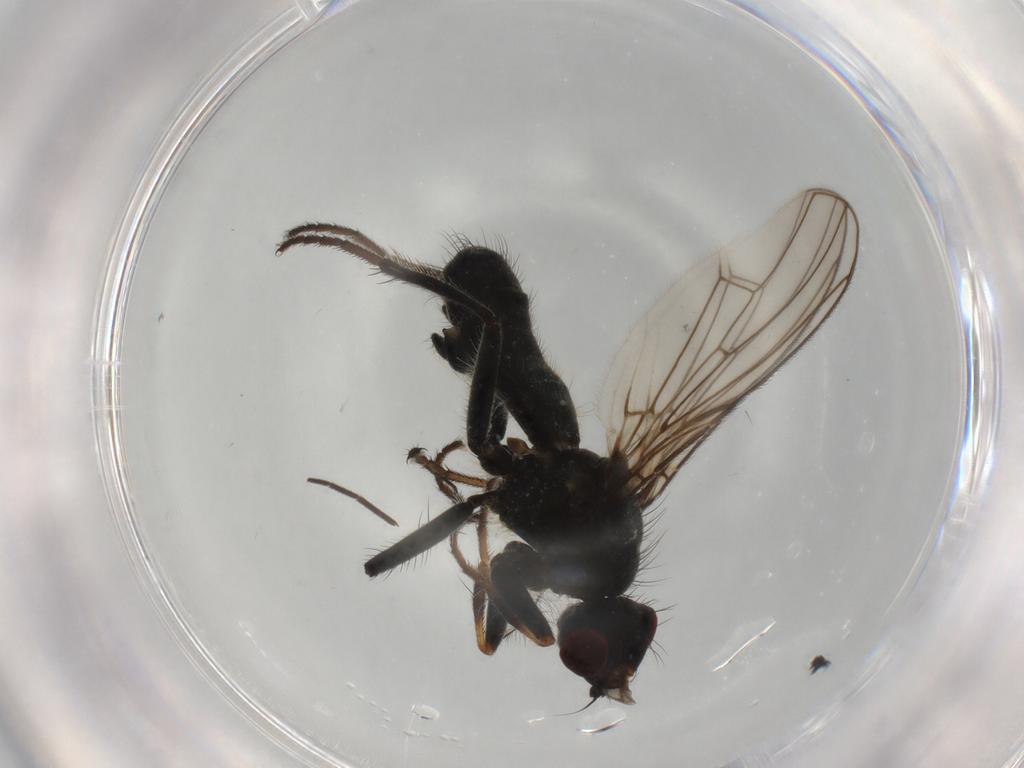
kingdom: Animalia
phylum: Arthropoda
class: Insecta
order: Diptera
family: Scathophagidae
